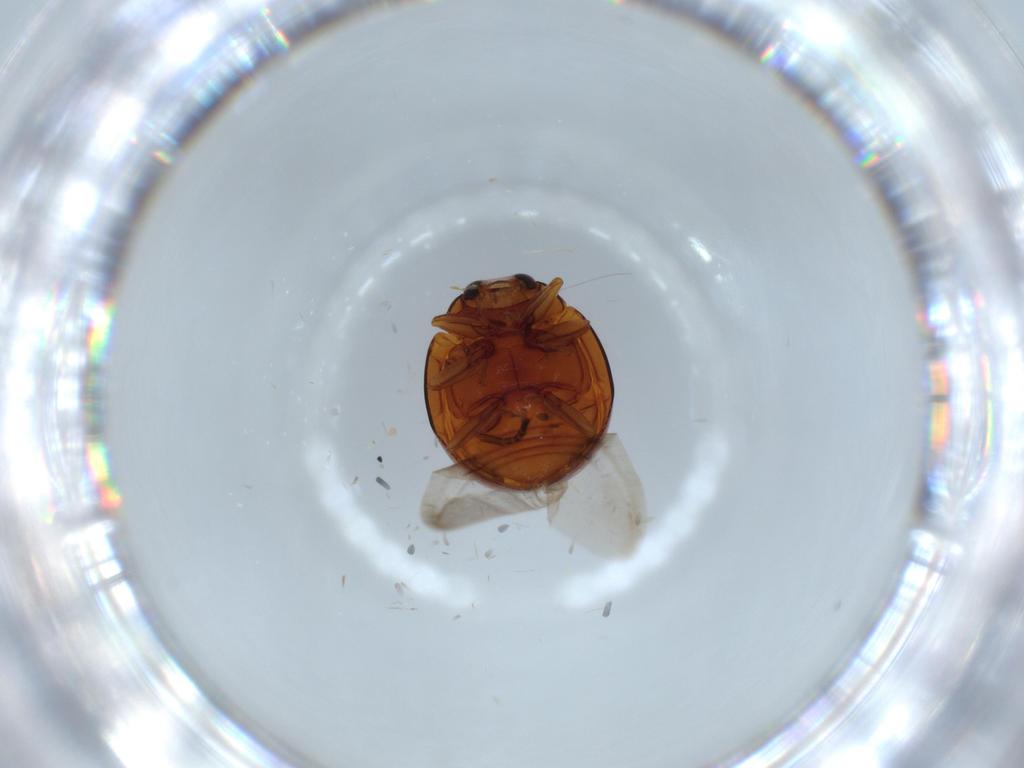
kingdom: Animalia
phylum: Arthropoda
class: Insecta
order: Coleoptera
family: Coccinellidae
